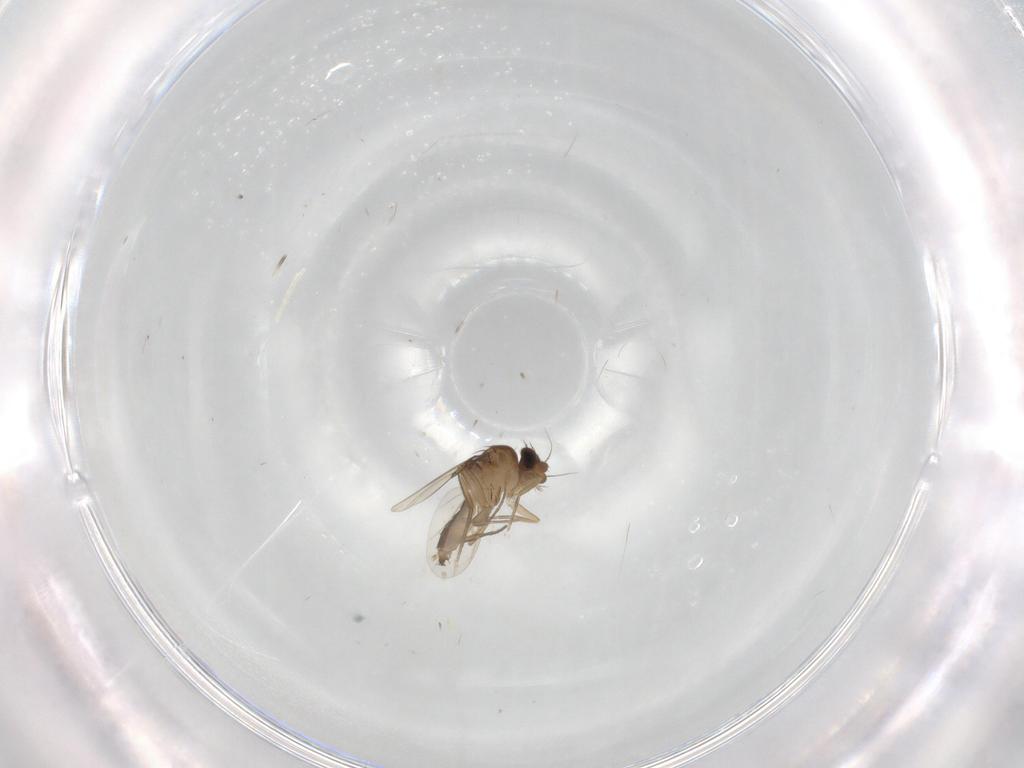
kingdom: Animalia
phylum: Arthropoda
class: Insecta
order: Diptera
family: Phoridae
